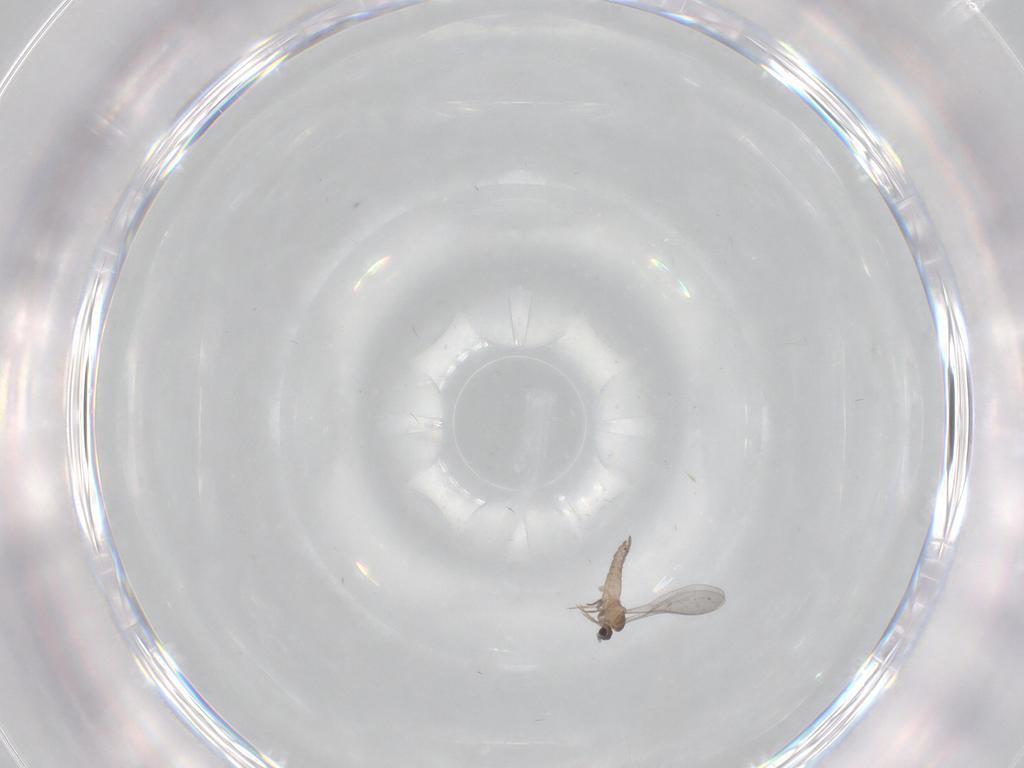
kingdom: Animalia
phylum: Arthropoda
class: Insecta
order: Diptera
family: Cecidomyiidae
